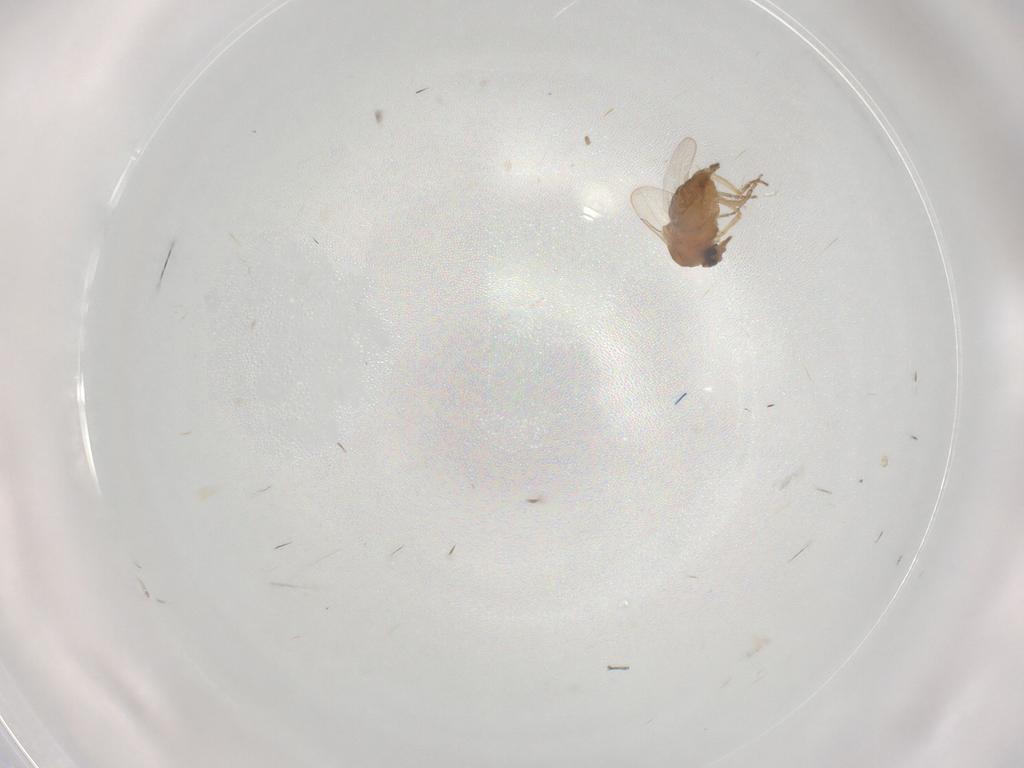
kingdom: Animalia
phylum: Arthropoda
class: Insecta
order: Diptera
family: Ceratopogonidae
